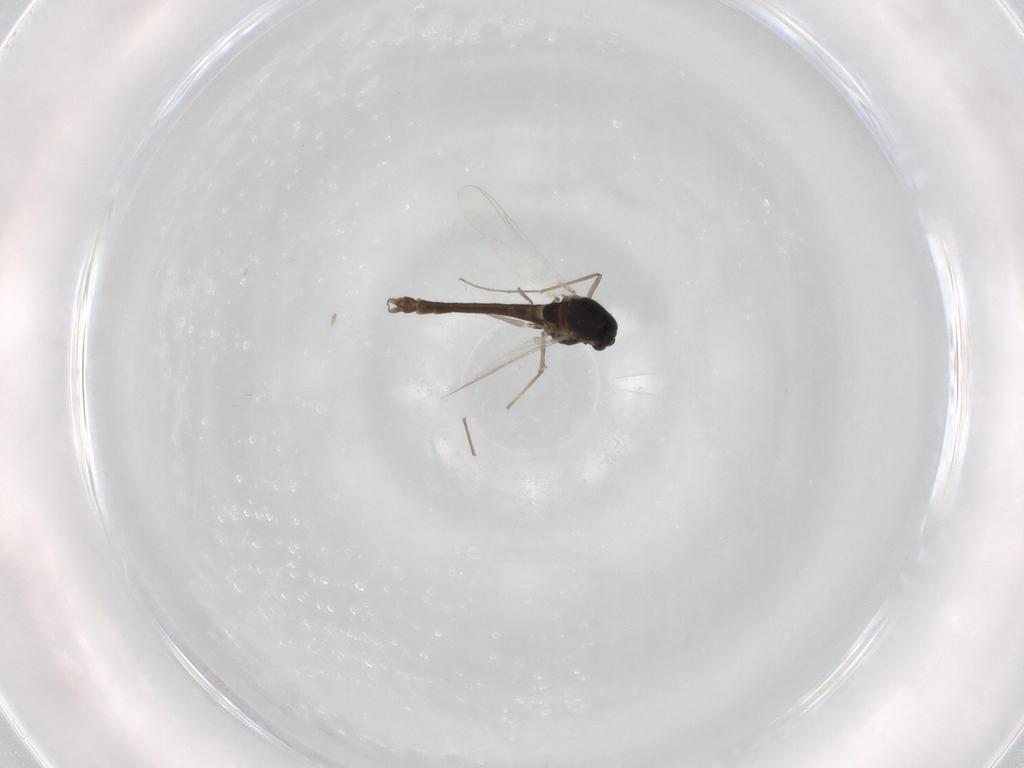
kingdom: Animalia
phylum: Arthropoda
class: Insecta
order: Diptera
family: Chironomidae
